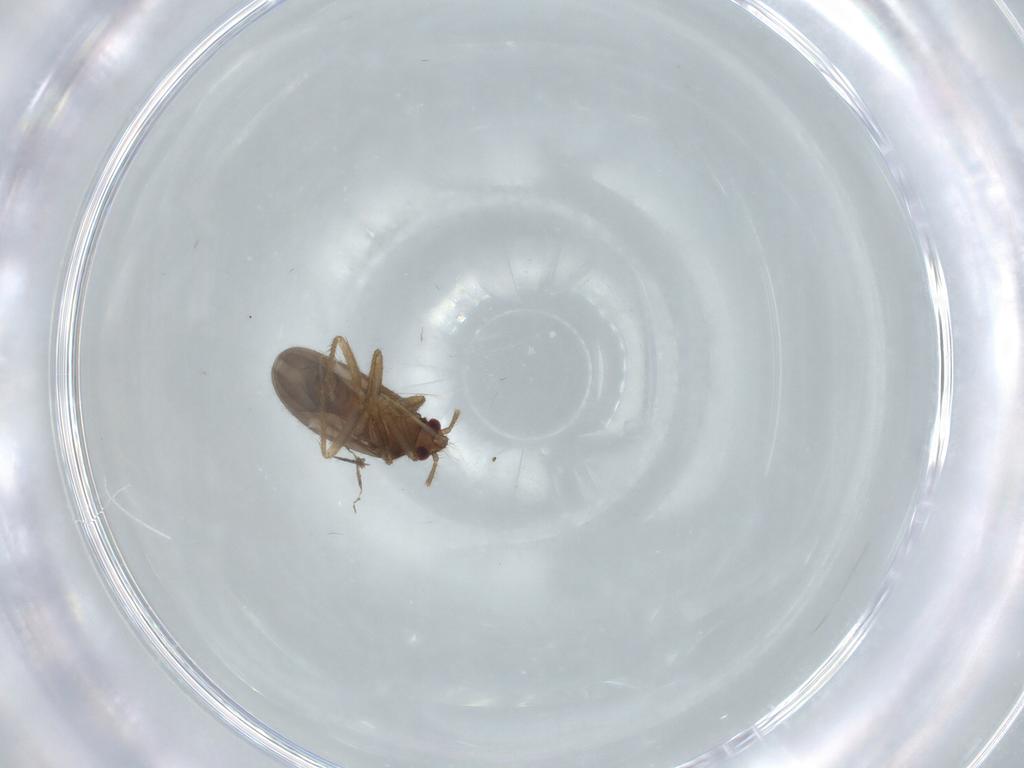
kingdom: Animalia
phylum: Arthropoda
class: Insecta
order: Hemiptera
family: Ceratocombidae
